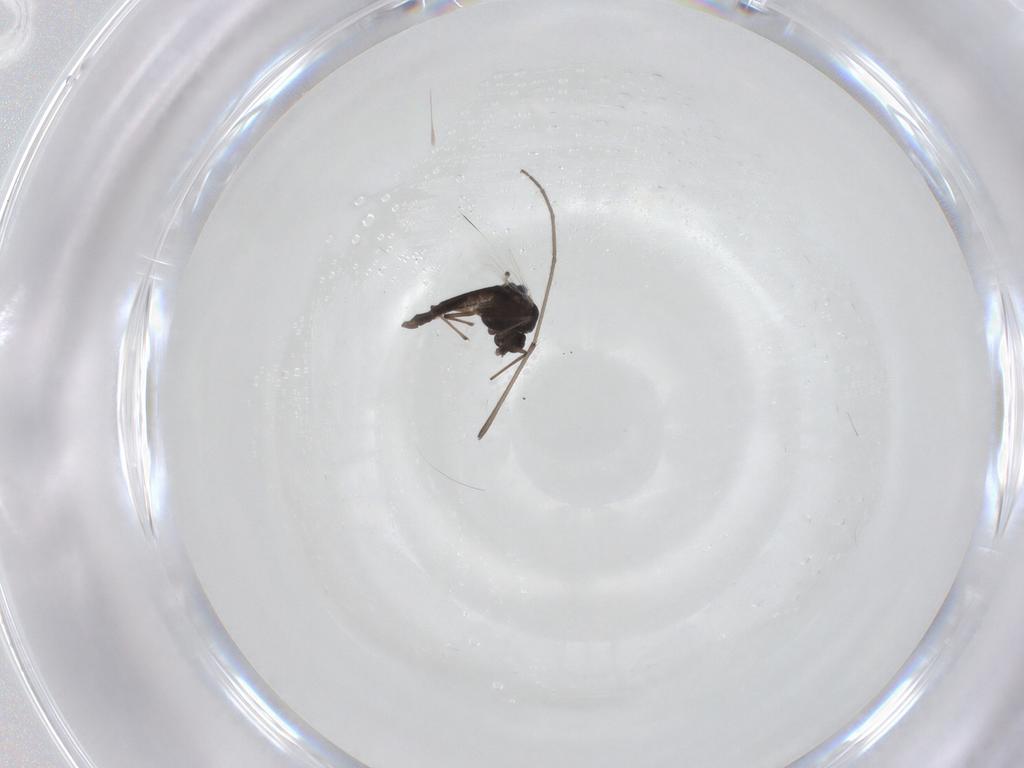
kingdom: Animalia
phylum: Arthropoda
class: Insecta
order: Diptera
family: Chironomidae
